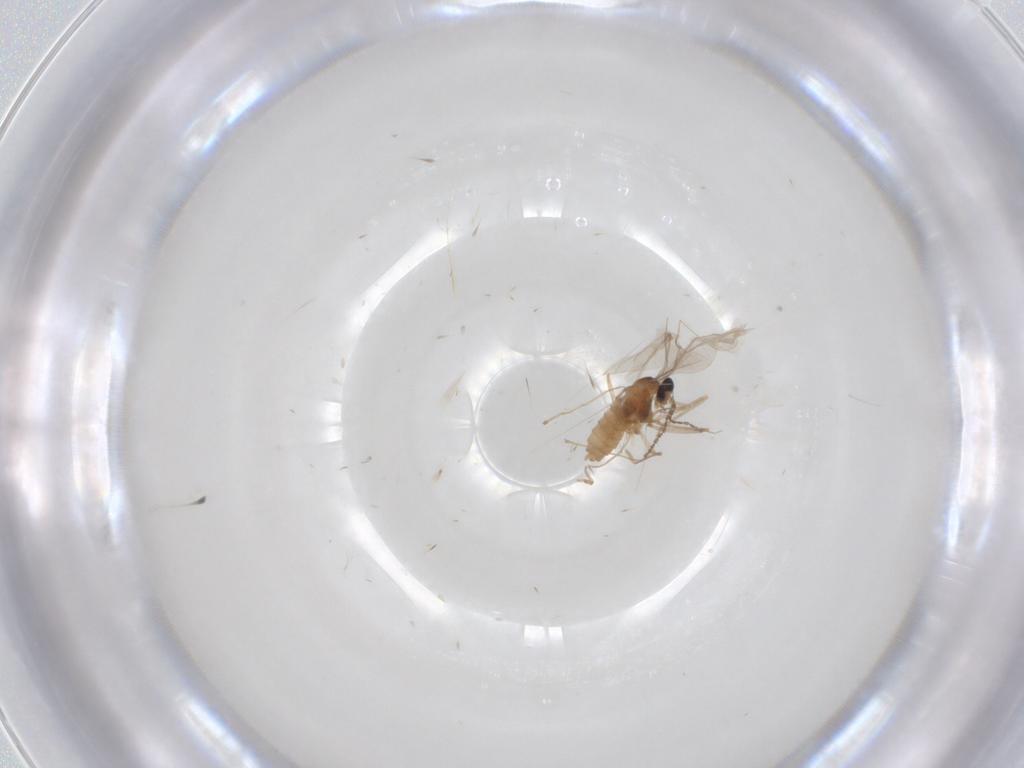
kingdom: Animalia
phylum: Arthropoda
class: Insecta
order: Diptera
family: Cecidomyiidae
